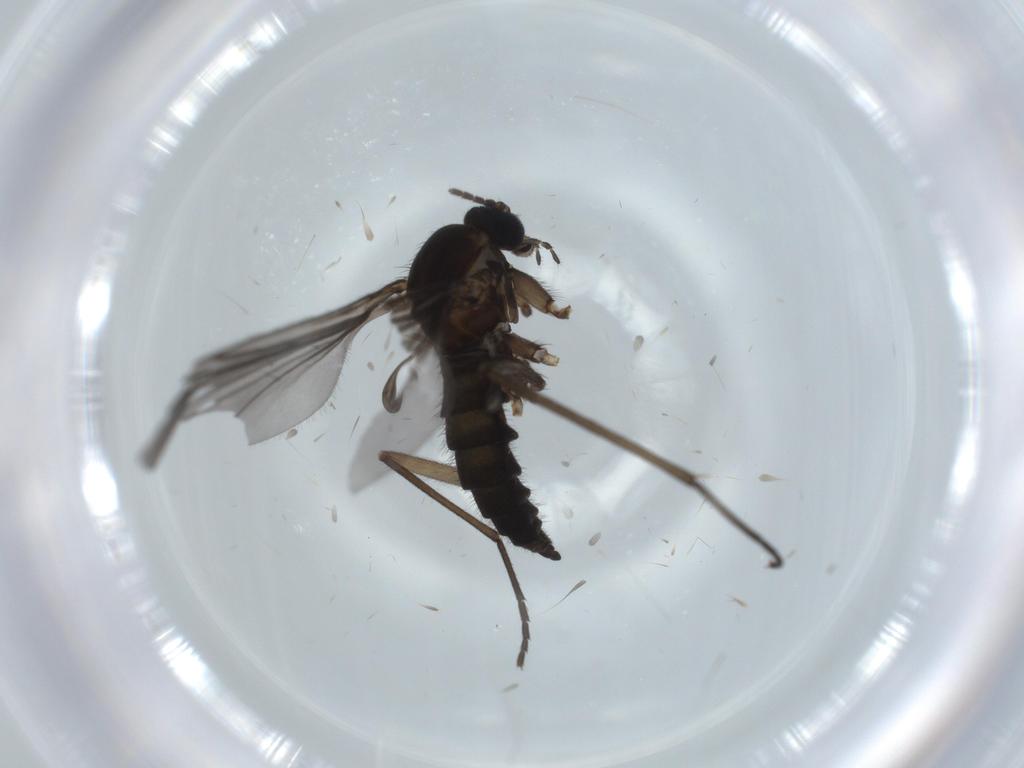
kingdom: Animalia
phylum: Arthropoda
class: Insecta
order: Diptera
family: Sciaridae
